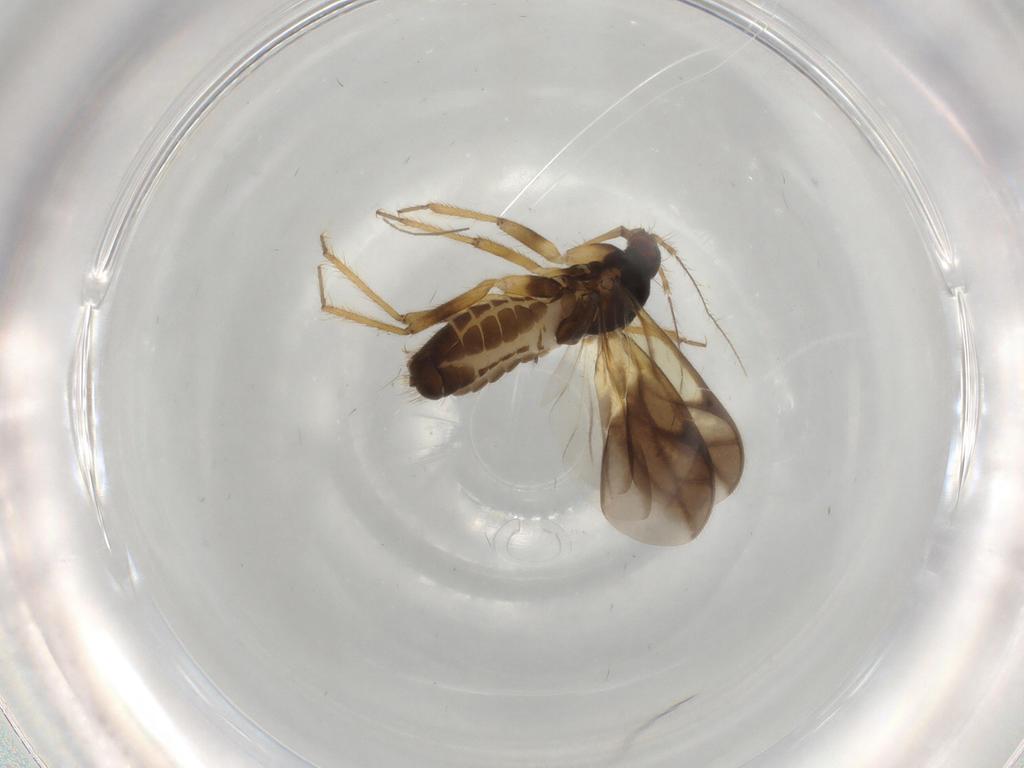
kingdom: Animalia
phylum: Arthropoda
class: Insecta
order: Hemiptera
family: Ceratocombidae
